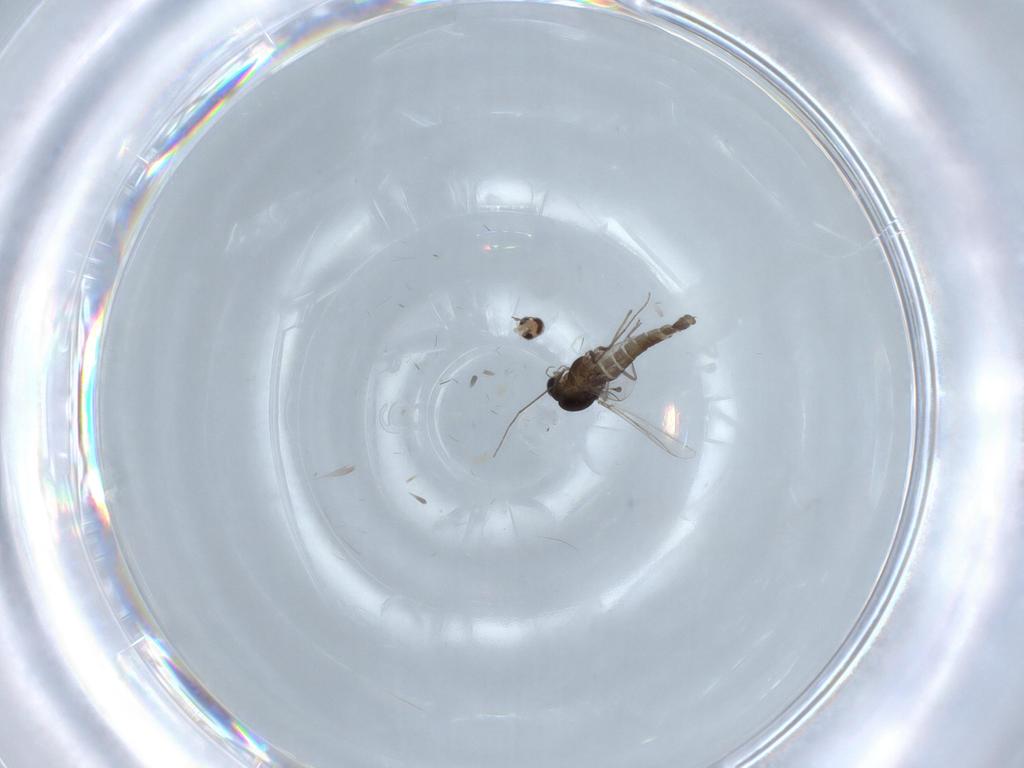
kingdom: Animalia
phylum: Arthropoda
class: Insecta
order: Diptera
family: Chironomidae
